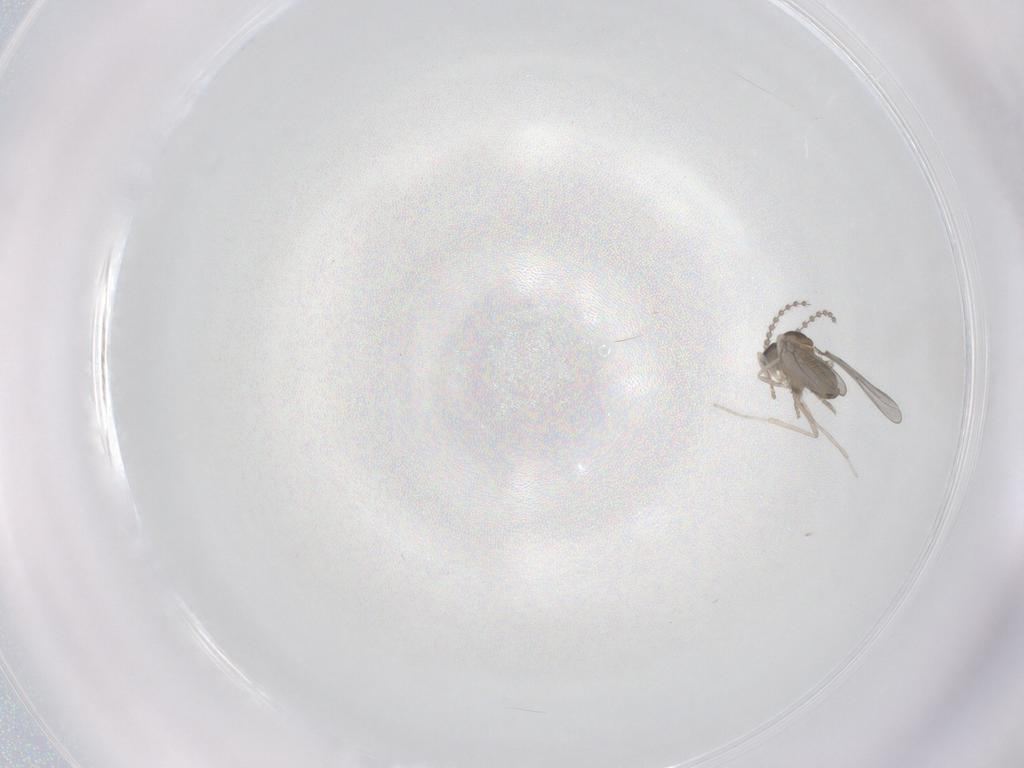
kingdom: Animalia
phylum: Arthropoda
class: Insecta
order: Diptera
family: Cecidomyiidae
